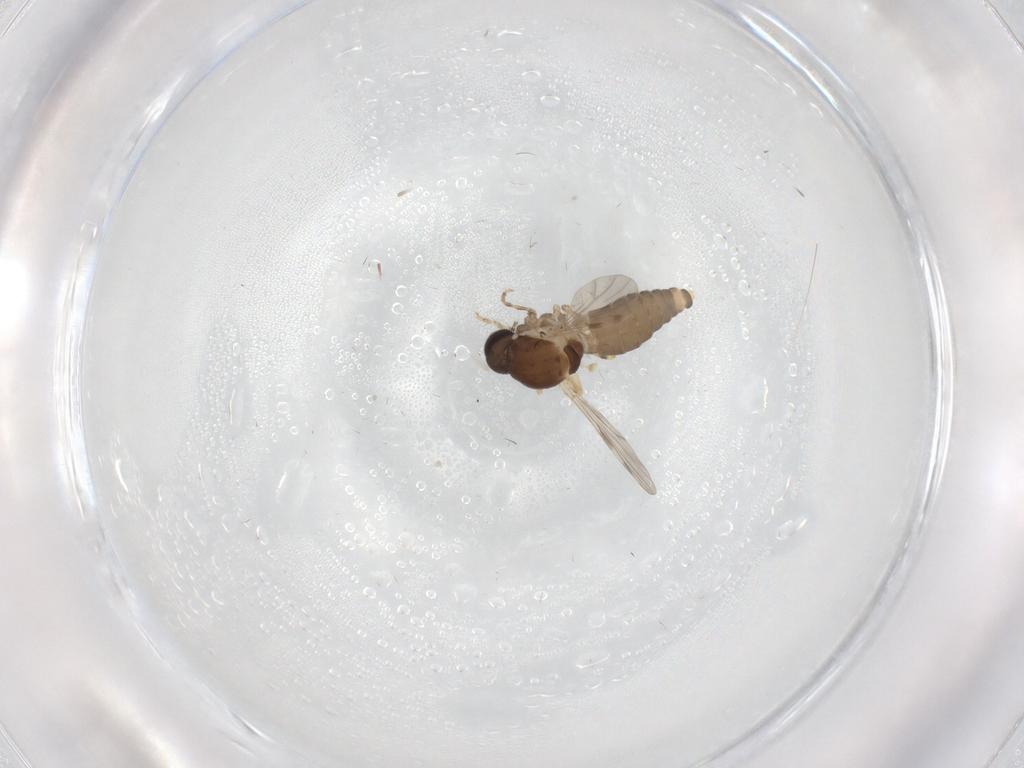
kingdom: Animalia
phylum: Arthropoda
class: Insecta
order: Diptera
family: Ceratopogonidae
